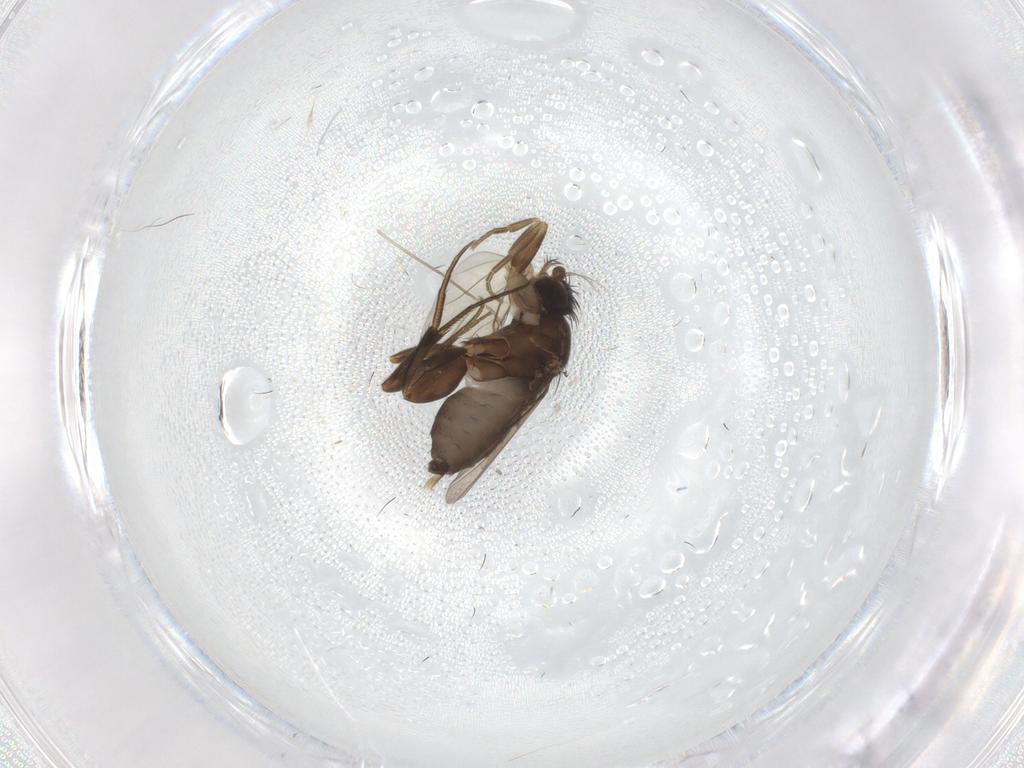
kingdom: Animalia
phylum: Arthropoda
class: Insecta
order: Diptera
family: Phoridae
